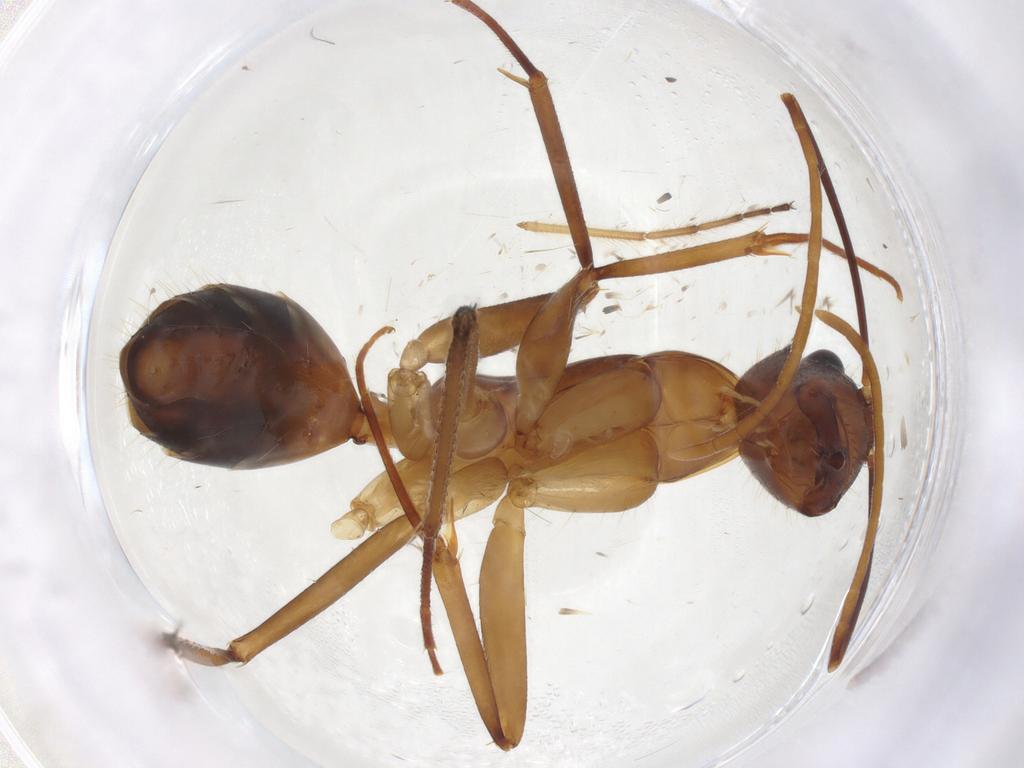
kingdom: Animalia
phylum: Arthropoda
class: Insecta
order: Hymenoptera
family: Formicidae
